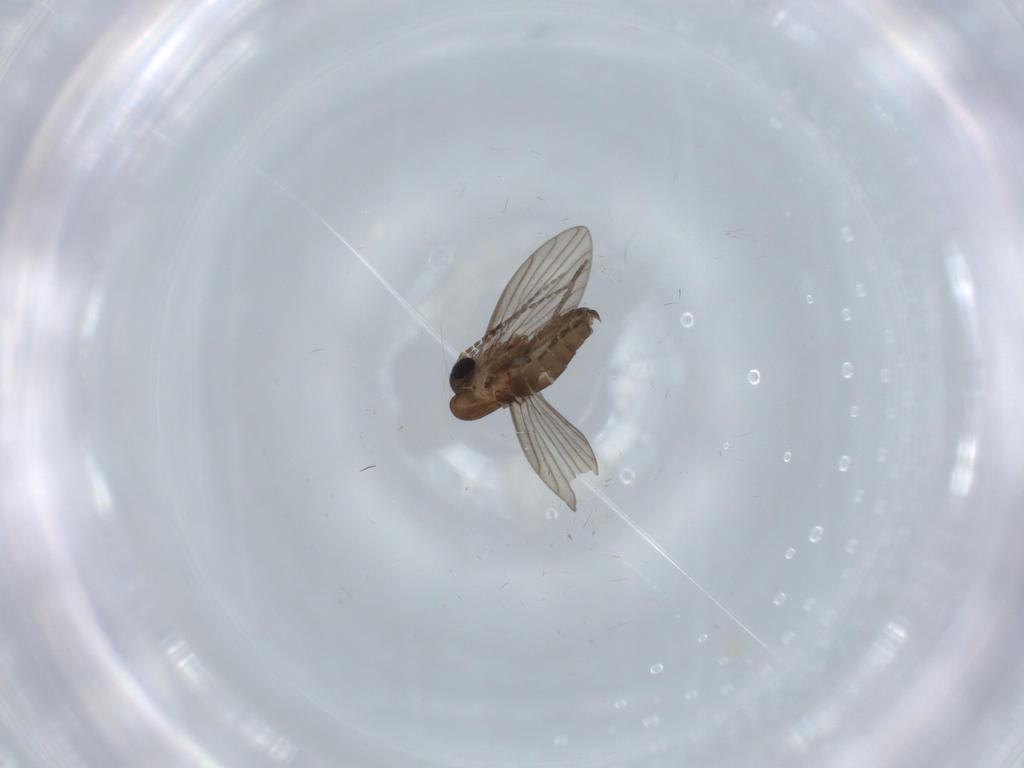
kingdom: Animalia
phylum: Arthropoda
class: Insecta
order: Diptera
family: Psychodidae
